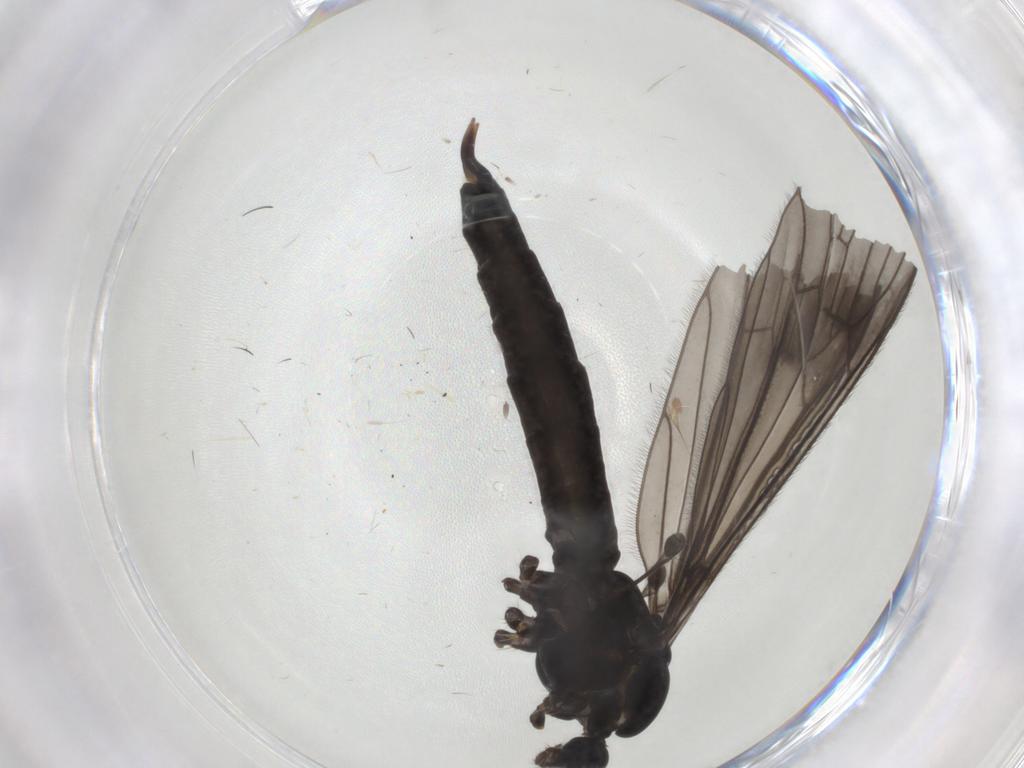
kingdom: Animalia
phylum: Arthropoda
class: Insecta
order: Diptera
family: Limoniidae
